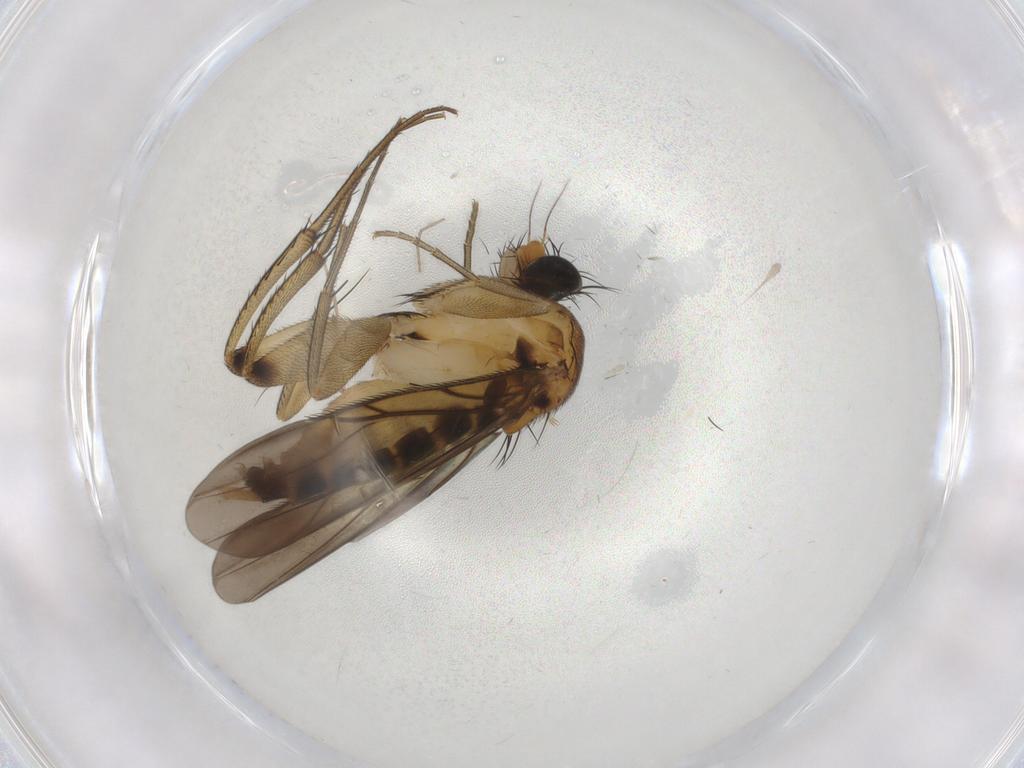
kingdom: Animalia
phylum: Arthropoda
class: Insecta
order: Diptera
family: Phoridae
